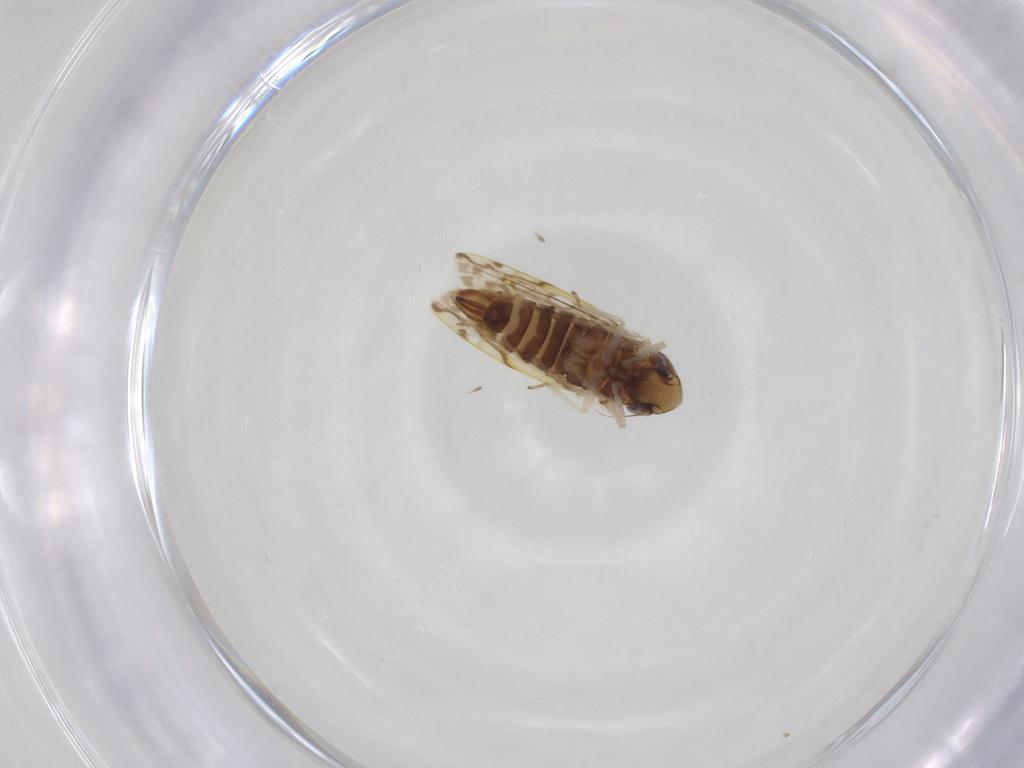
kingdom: Animalia
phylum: Arthropoda
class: Insecta
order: Hemiptera
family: Cicadellidae
